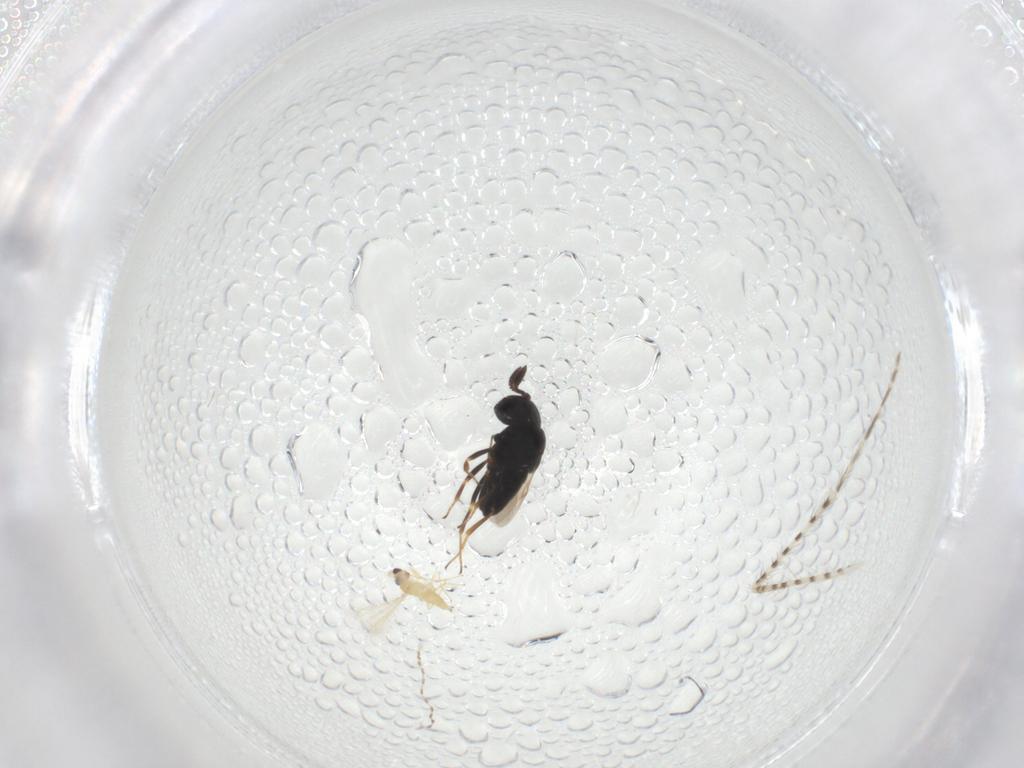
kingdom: Animalia
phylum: Arthropoda
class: Insecta
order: Hymenoptera
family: Scelionidae
